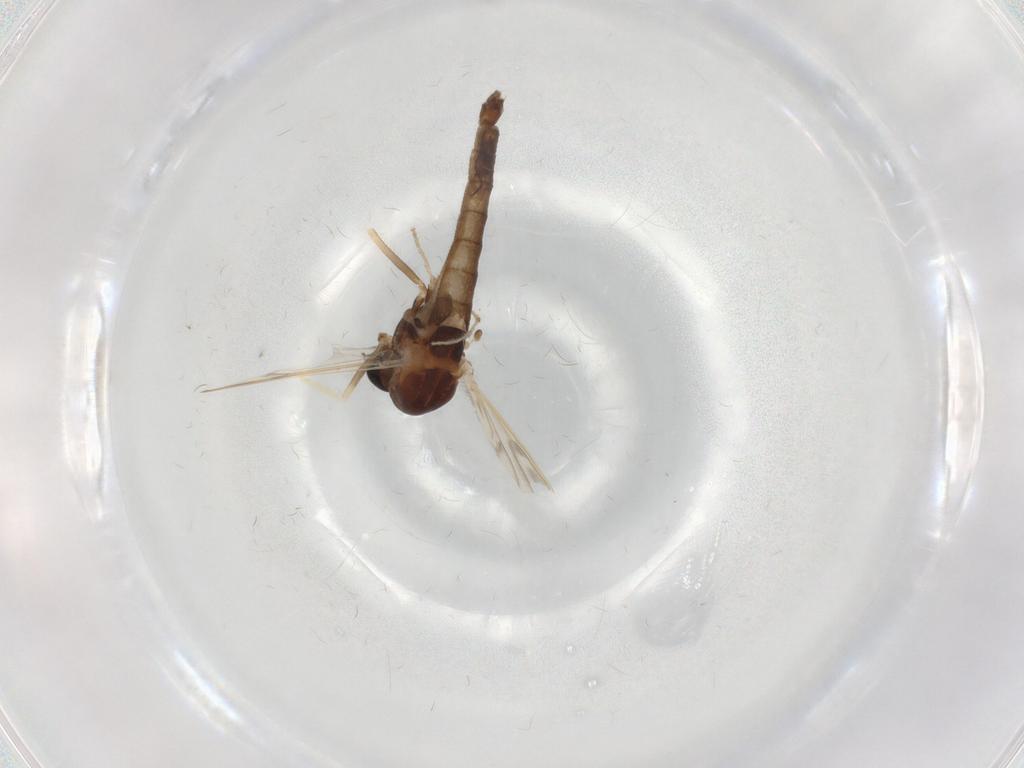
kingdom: Animalia
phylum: Arthropoda
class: Insecta
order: Diptera
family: Chironomidae
